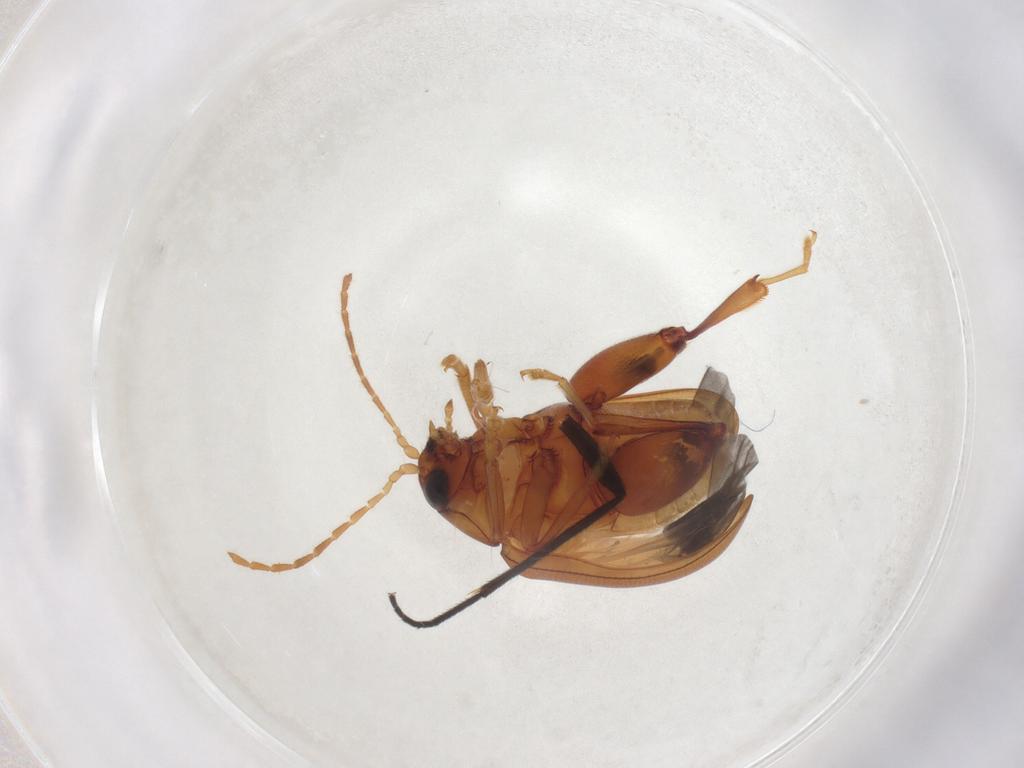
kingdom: Animalia
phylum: Arthropoda
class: Insecta
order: Coleoptera
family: Chrysomelidae
